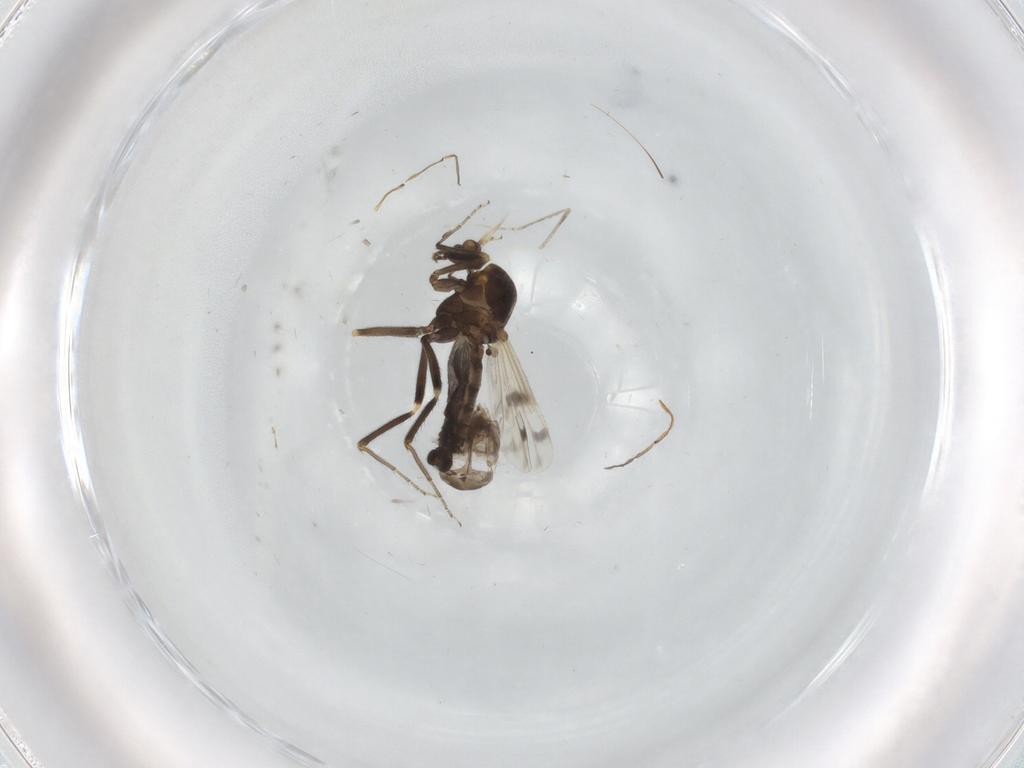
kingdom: Animalia
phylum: Arthropoda
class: Insecta
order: Diptera
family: Ceratopogonidae
